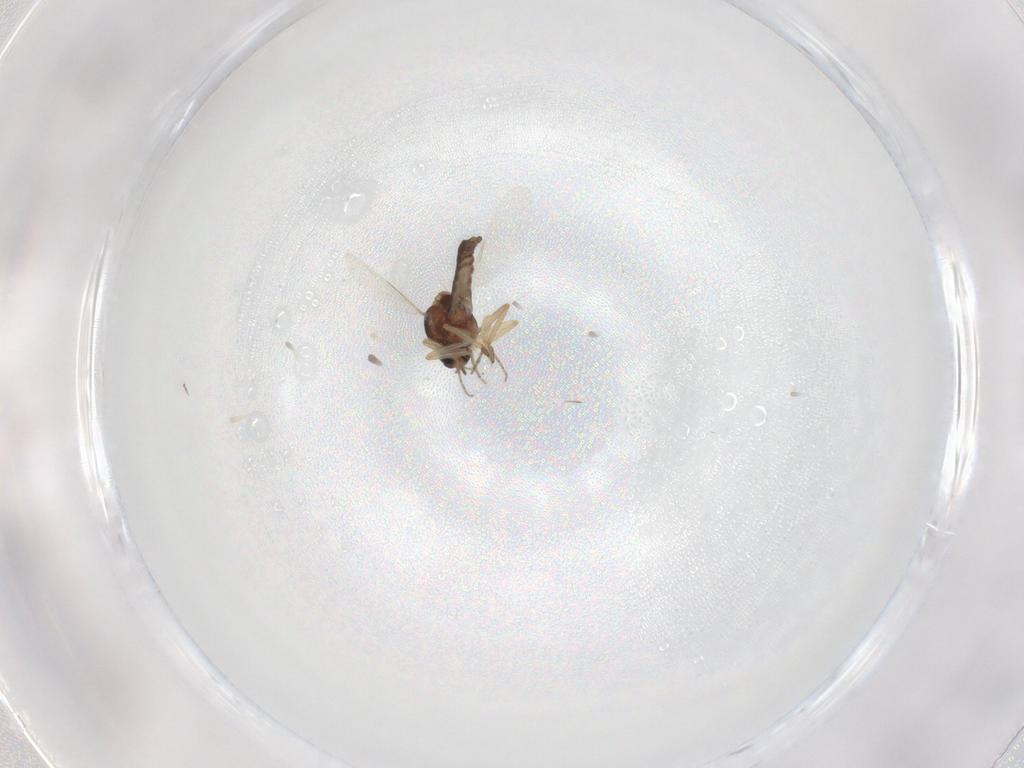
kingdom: Animalia
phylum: Arthropoda
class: Insecta
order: Diptera
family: Ceratopogonidae
